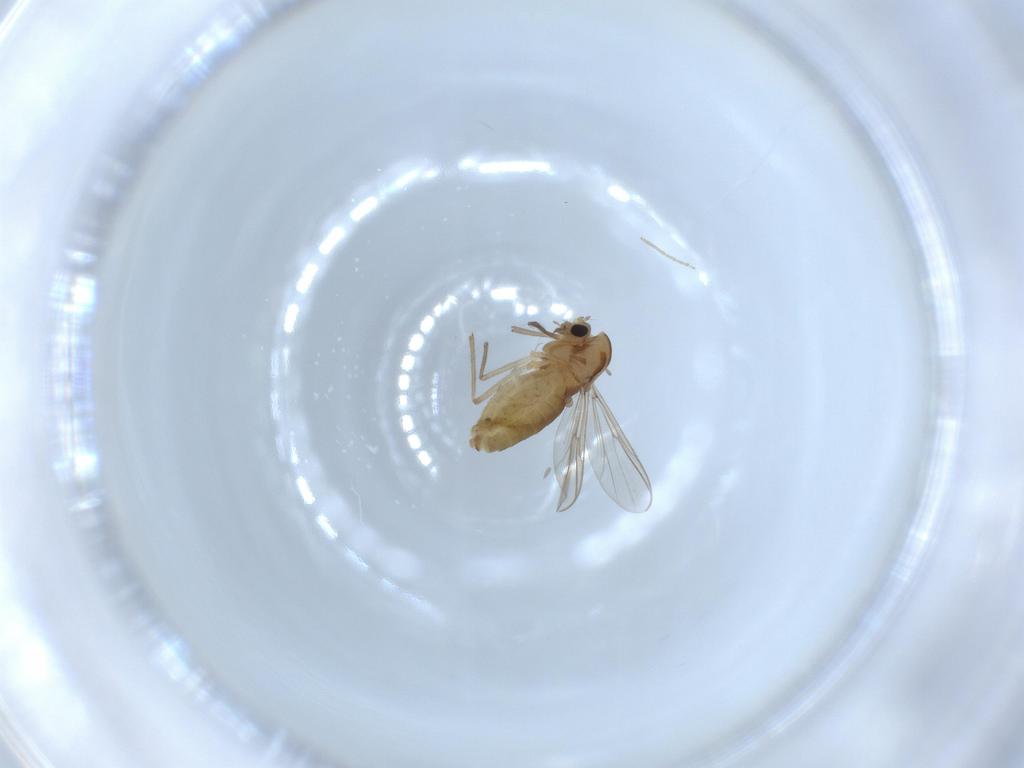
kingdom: Animalia
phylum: Arthropoda
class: Insecta
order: Diptera
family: Chironomidae
